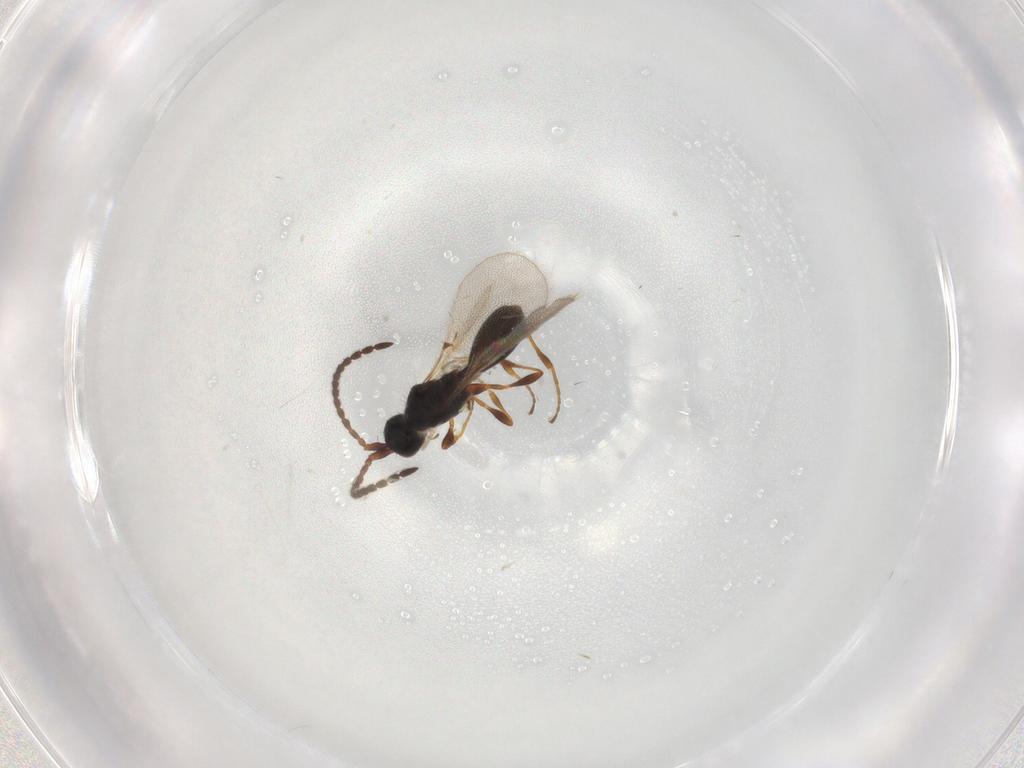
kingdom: Animalia
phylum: Arthropoda
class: Insecta
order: Hymenoptera
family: Diapriidae
